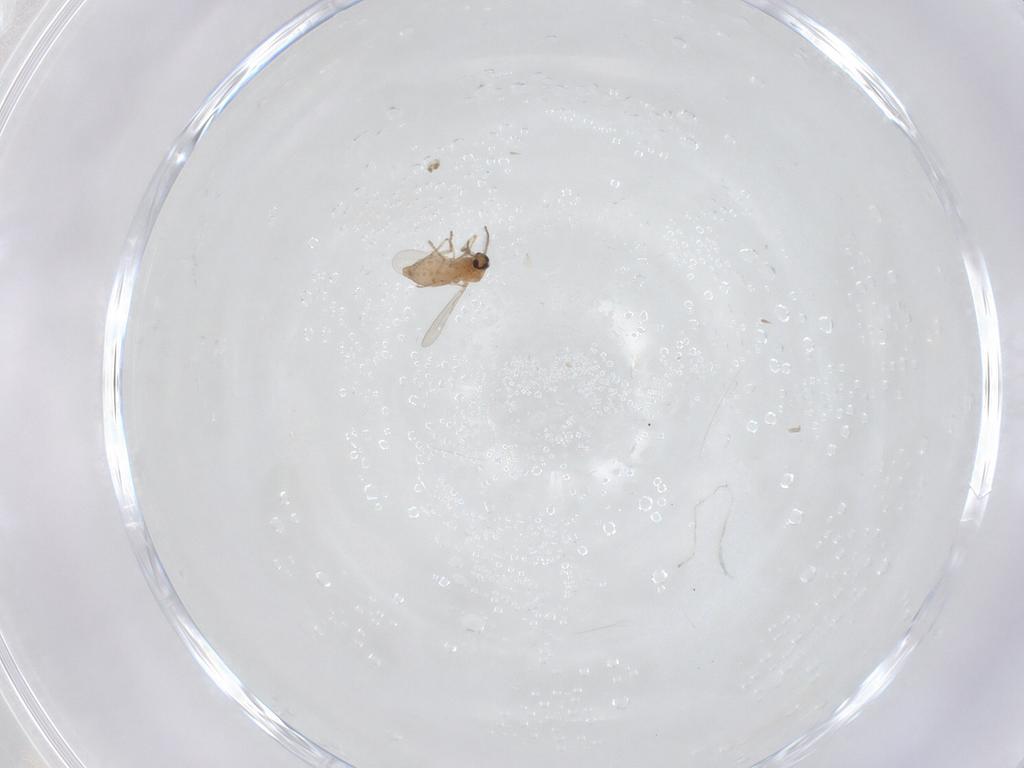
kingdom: Animalia
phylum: Arthropoda
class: Insecta
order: Diptera
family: Ceratopogonidae
